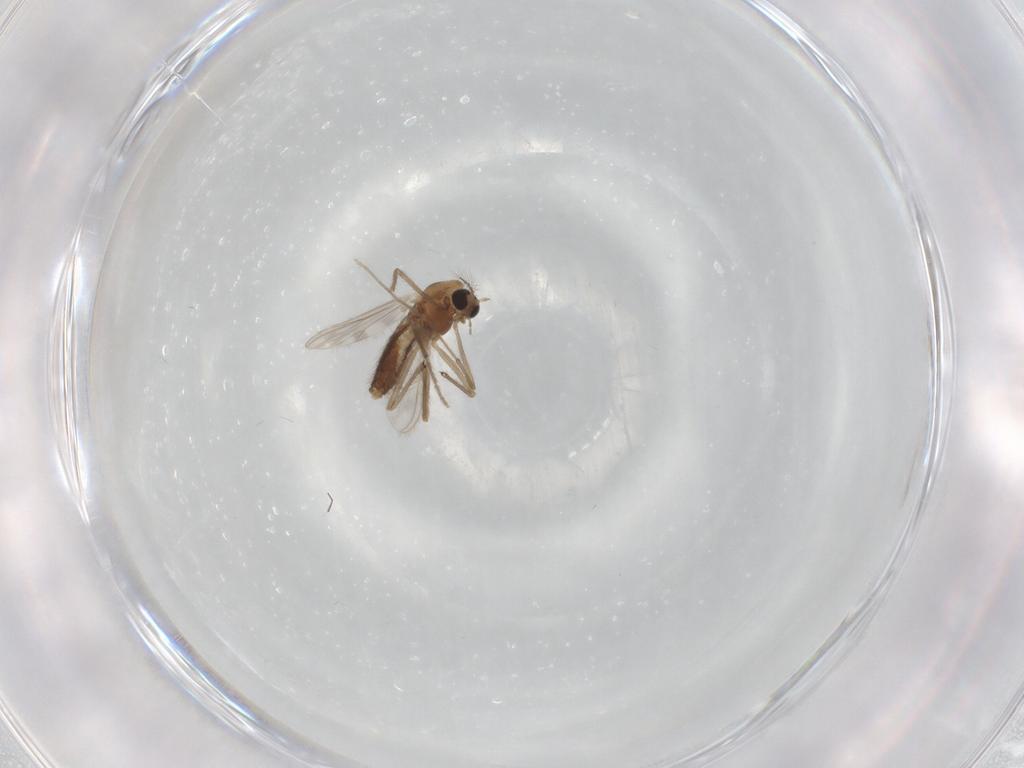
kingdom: Animalia
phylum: Arthropoda
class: Insecta
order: Diptera
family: Chironomidae
